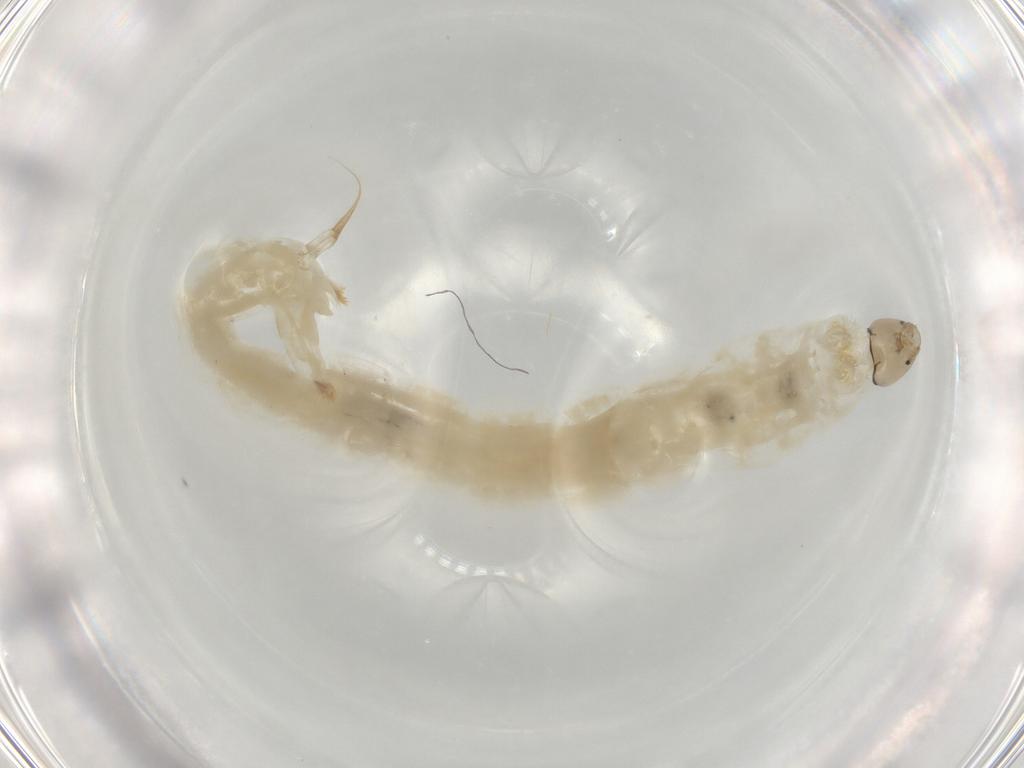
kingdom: Animalia
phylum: Arthropoda
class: Insecta
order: Diptera
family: Chironomidae
